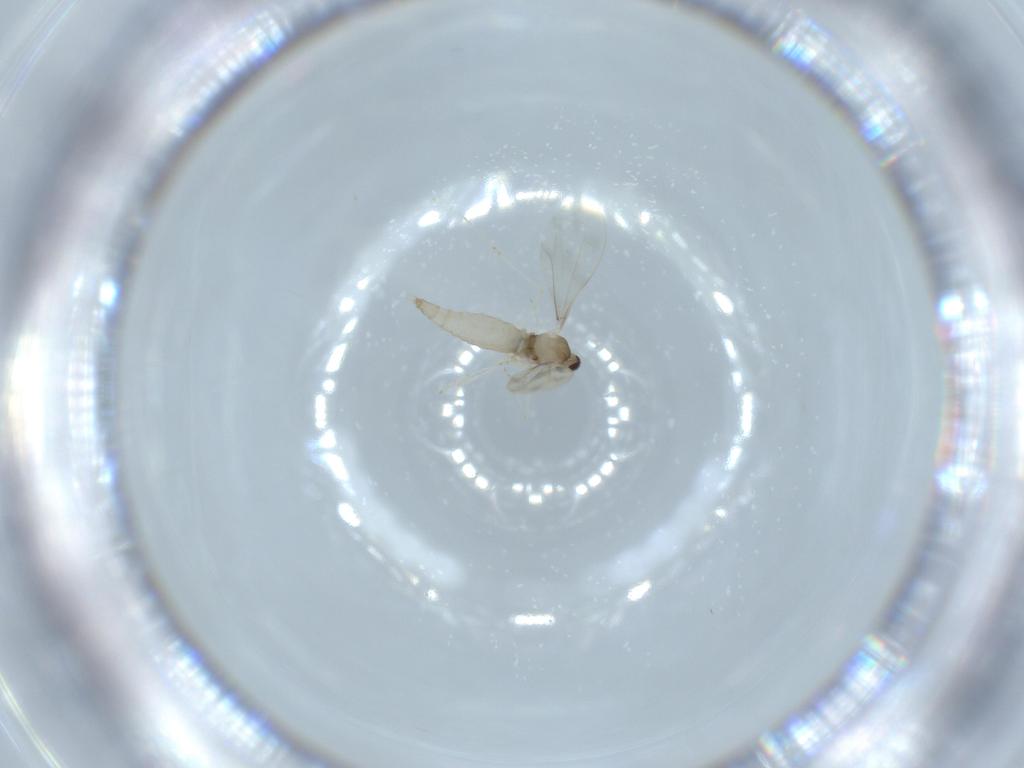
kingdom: Animalia
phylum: Arthropoda
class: Insecta
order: Diptera
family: Cecidomyiidae
